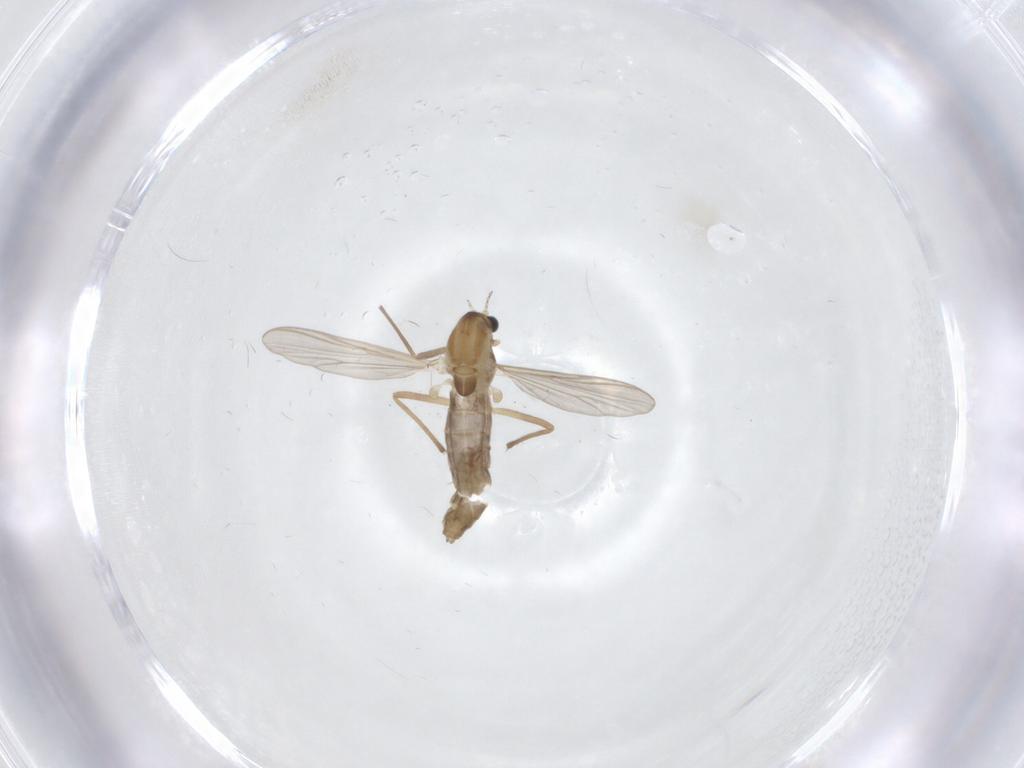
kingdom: Animalia
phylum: Arthropoda
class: Insecta
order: Diptera
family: Chironomidae
